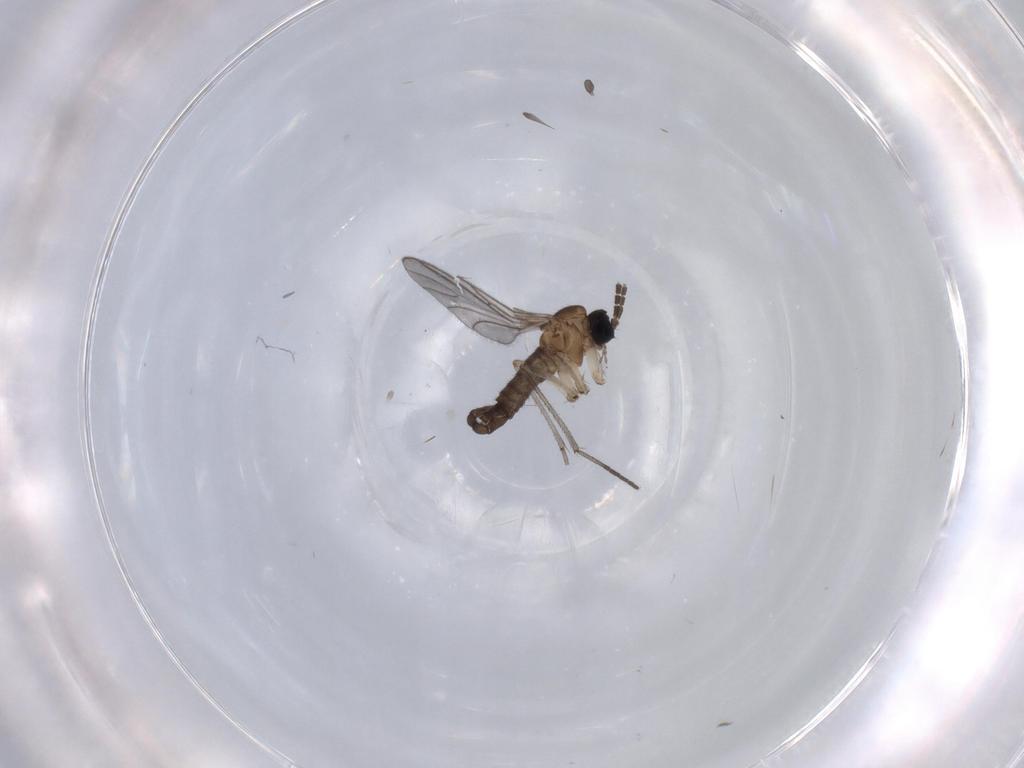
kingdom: Animalia
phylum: Arthropoda
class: Insecta
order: Diptera
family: Sciaridae
